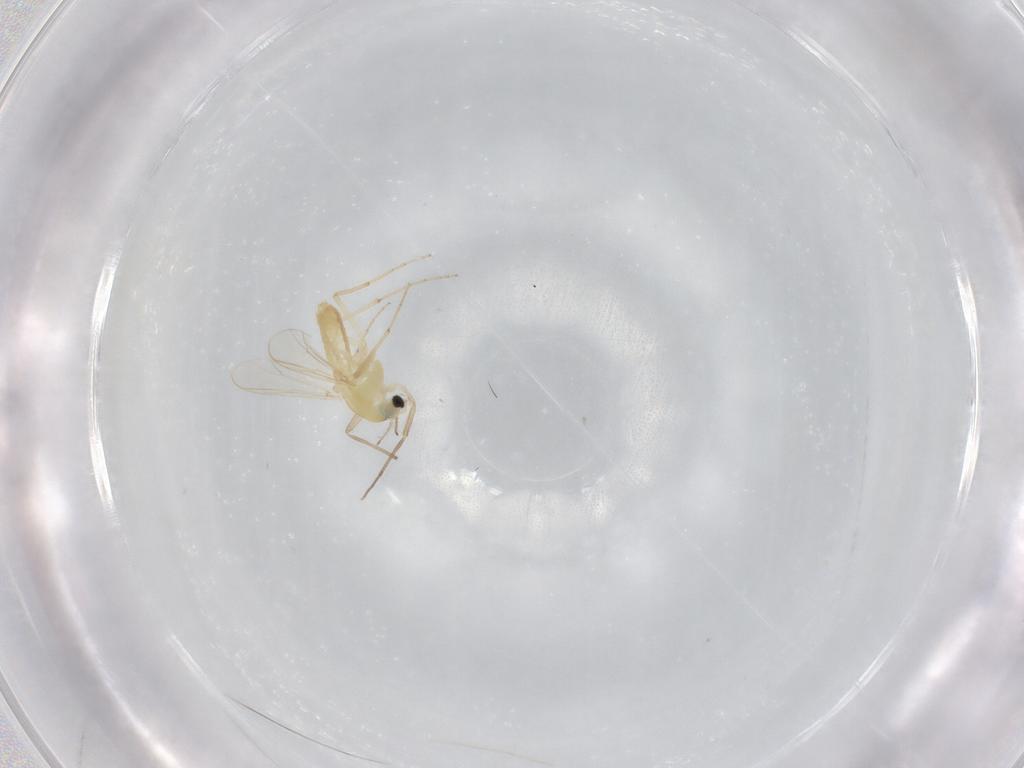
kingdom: Animalia
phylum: Arthropoda
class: Insecta
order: Diptera
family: Chironomidae
